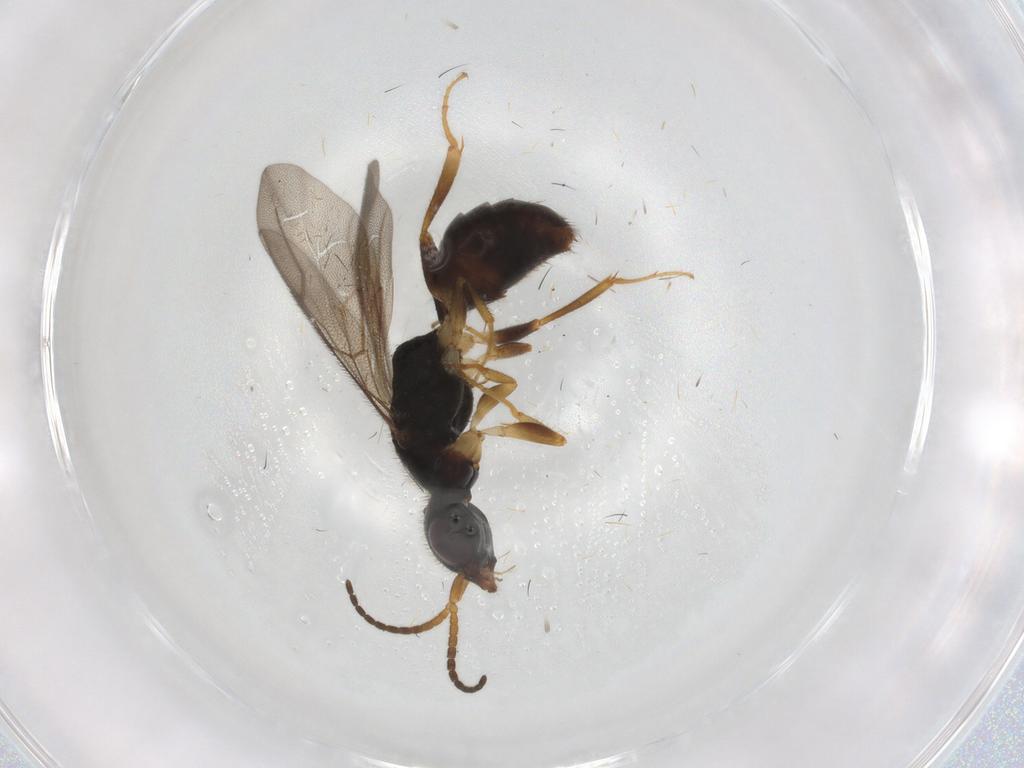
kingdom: Animalia
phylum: Arthropoda
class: Insecta
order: Hymenoptera
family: Bethylidae
